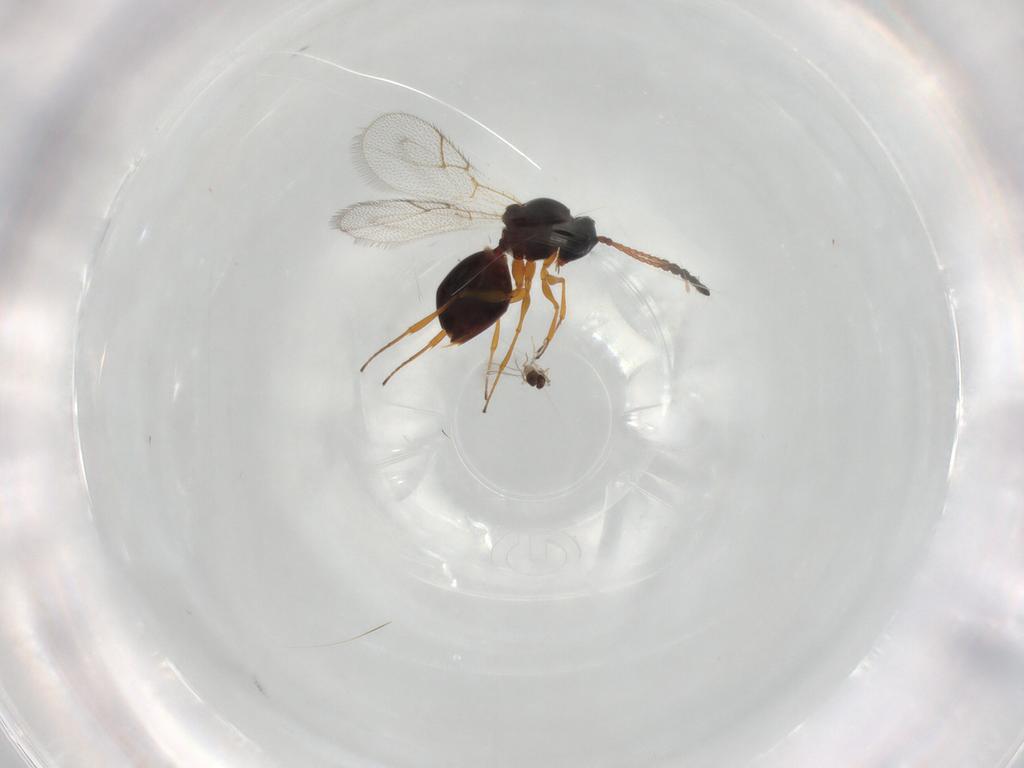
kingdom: Animalia
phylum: Arthropoda
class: Insecta
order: Hymenoptera
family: Figitidae
